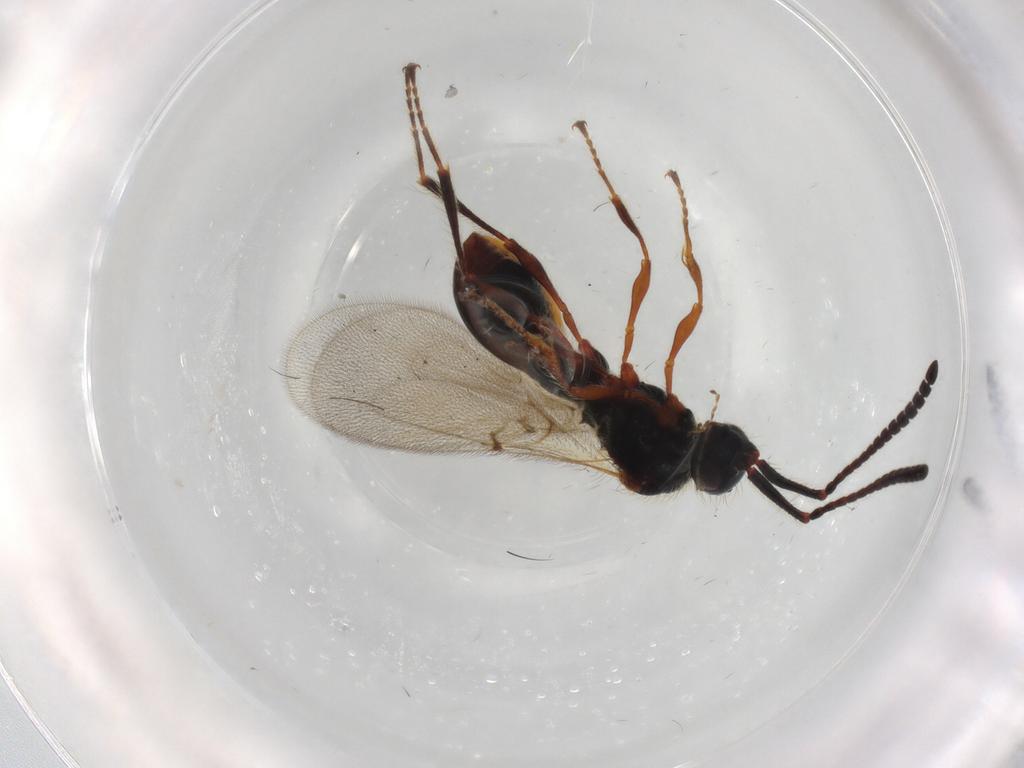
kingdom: Animalia
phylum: Arthropoda
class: Insecta
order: Hymenoptera
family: Diapriidae
